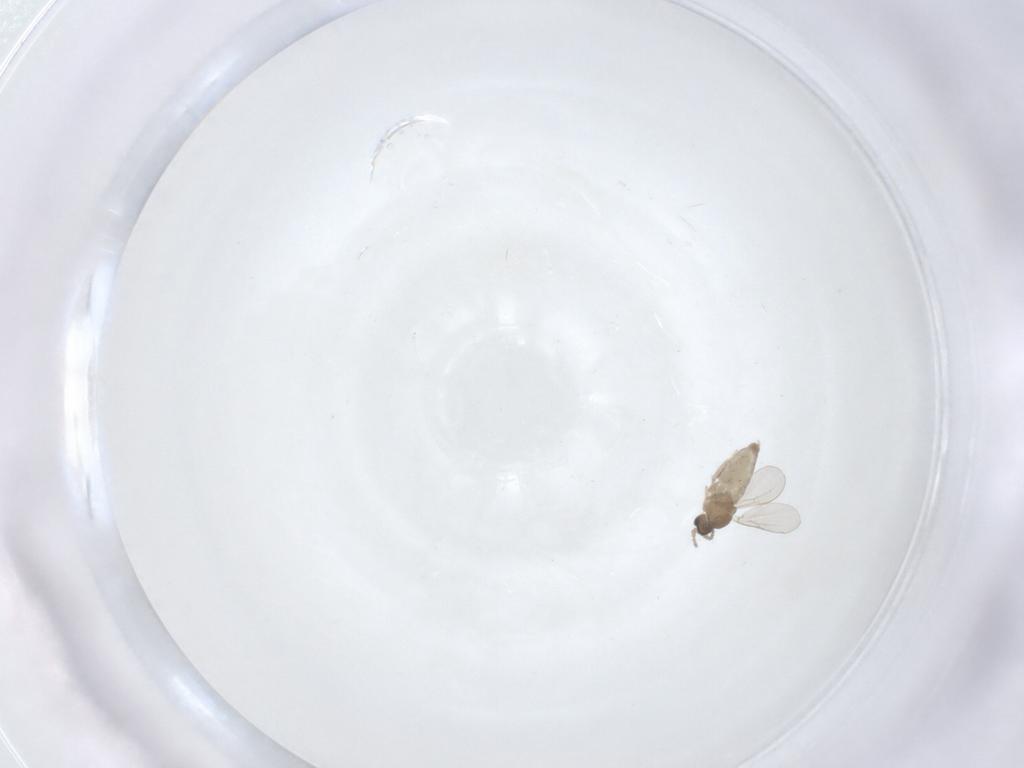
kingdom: Animalia
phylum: Arthropoda
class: Insecta
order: Diptera
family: Cecidomyiidae
